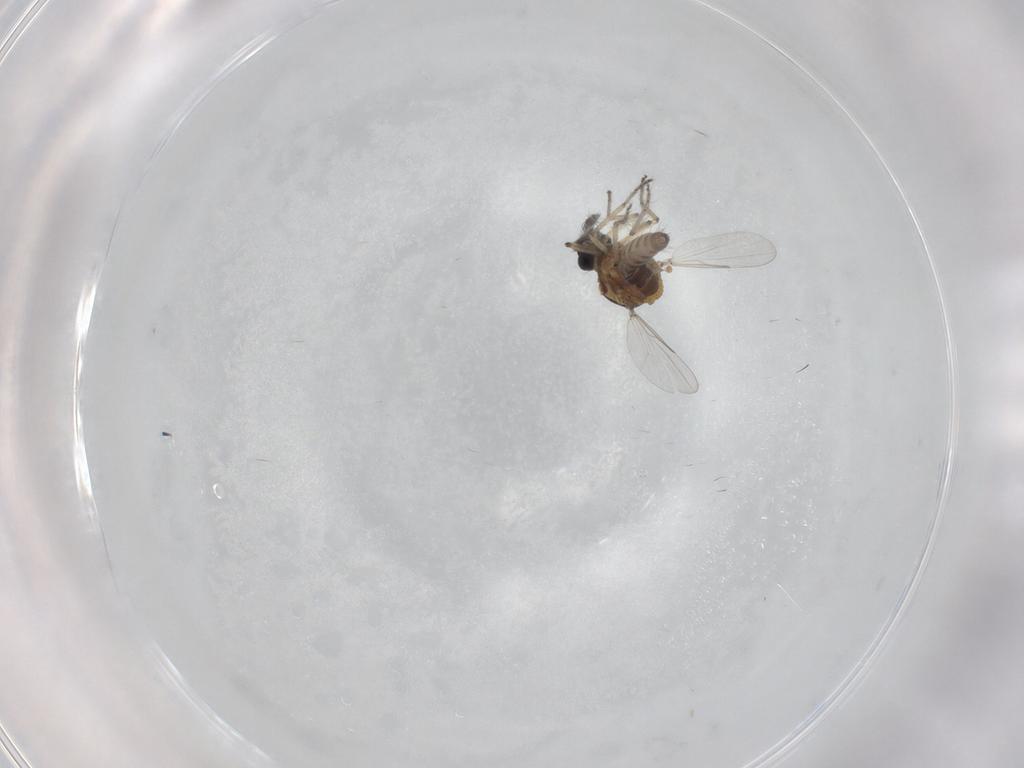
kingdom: Animalia
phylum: Arthropoda
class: Insecta
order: Diptera
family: Ceratopogonidae
